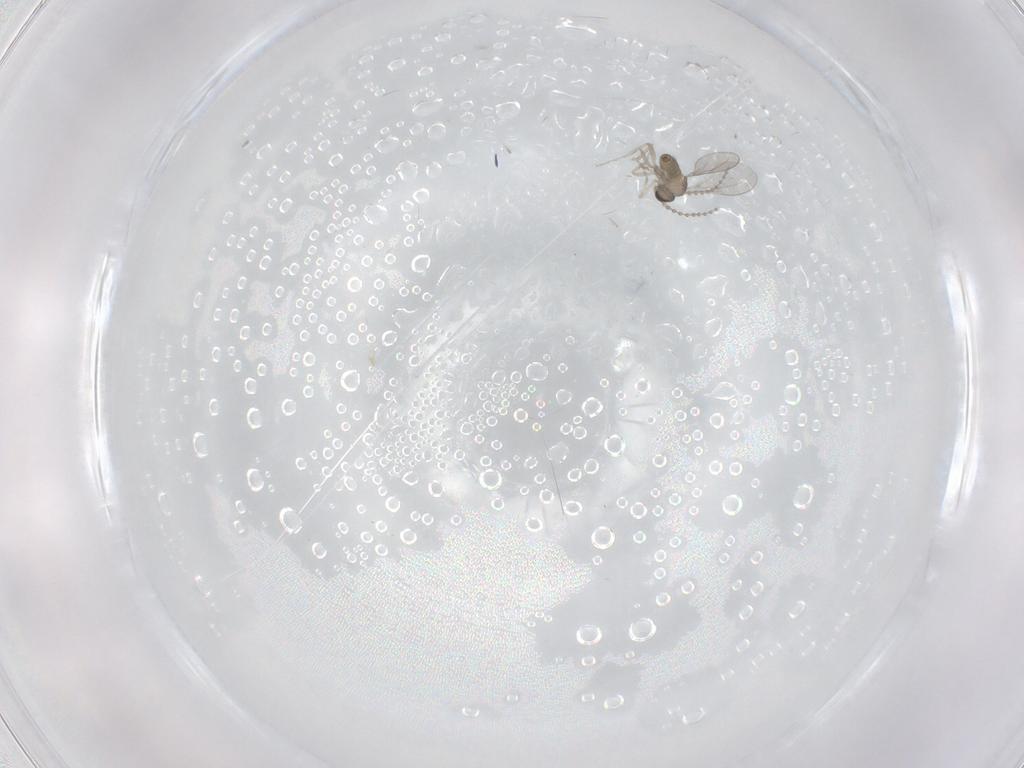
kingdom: Animalia
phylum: Arthropoda
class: Insecta
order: Diptera
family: Cecidomyiidae
